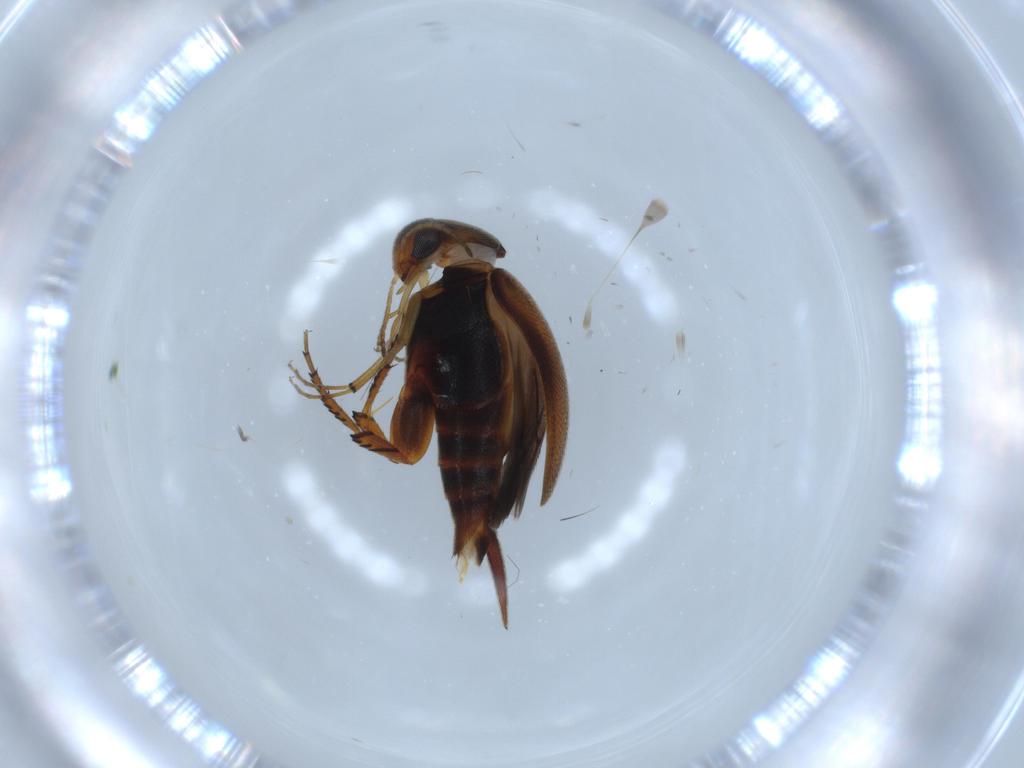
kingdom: Animalia
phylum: Arthropoda
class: Insecta
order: Coleoptera
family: Mordellidae
